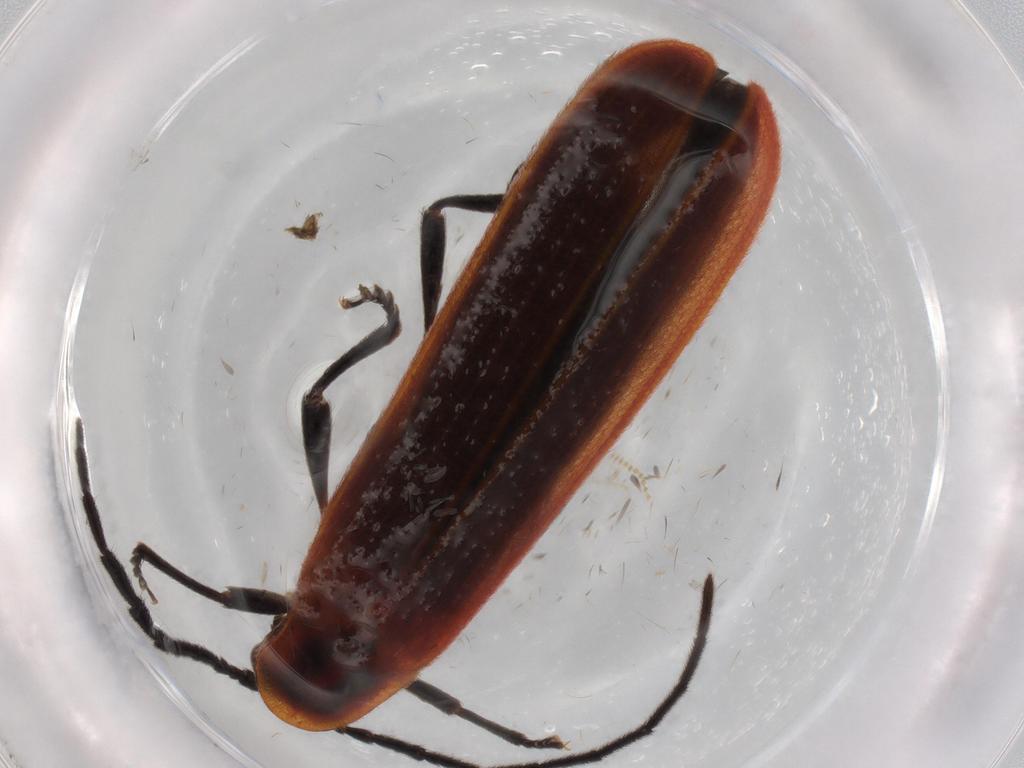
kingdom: Animalia
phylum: Arthropoda
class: Insecta
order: Coleoptera
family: Lycidae
